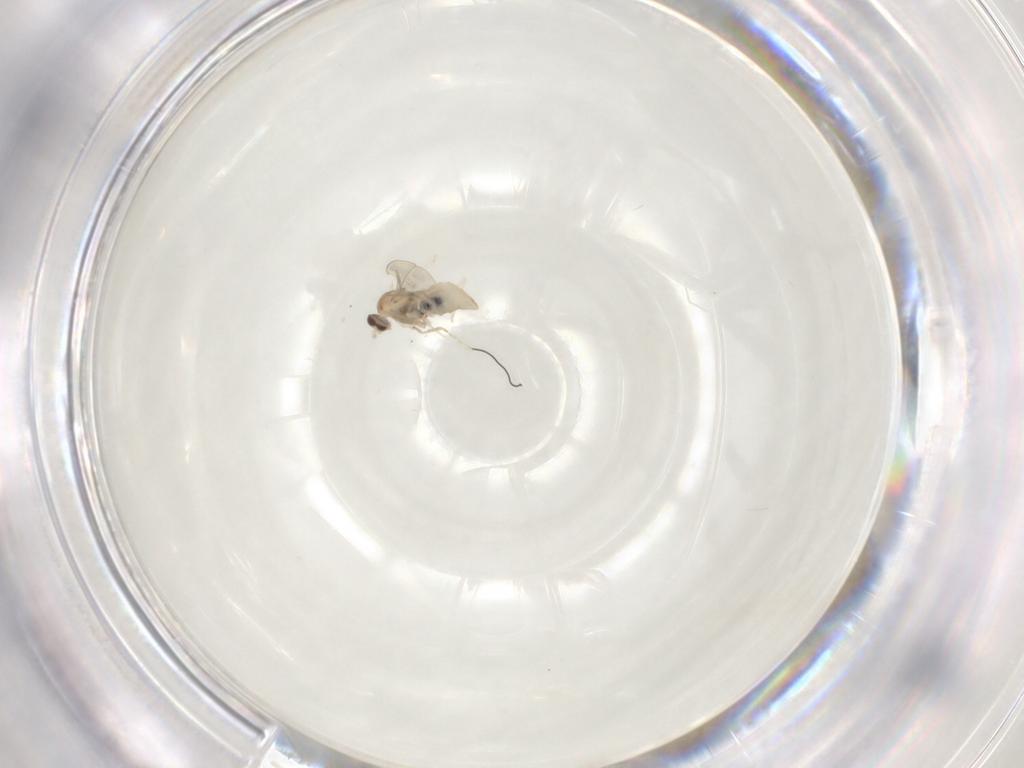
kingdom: Animalia
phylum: Arthropoda
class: Insecta
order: Diptera
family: Cecidomyiidae
